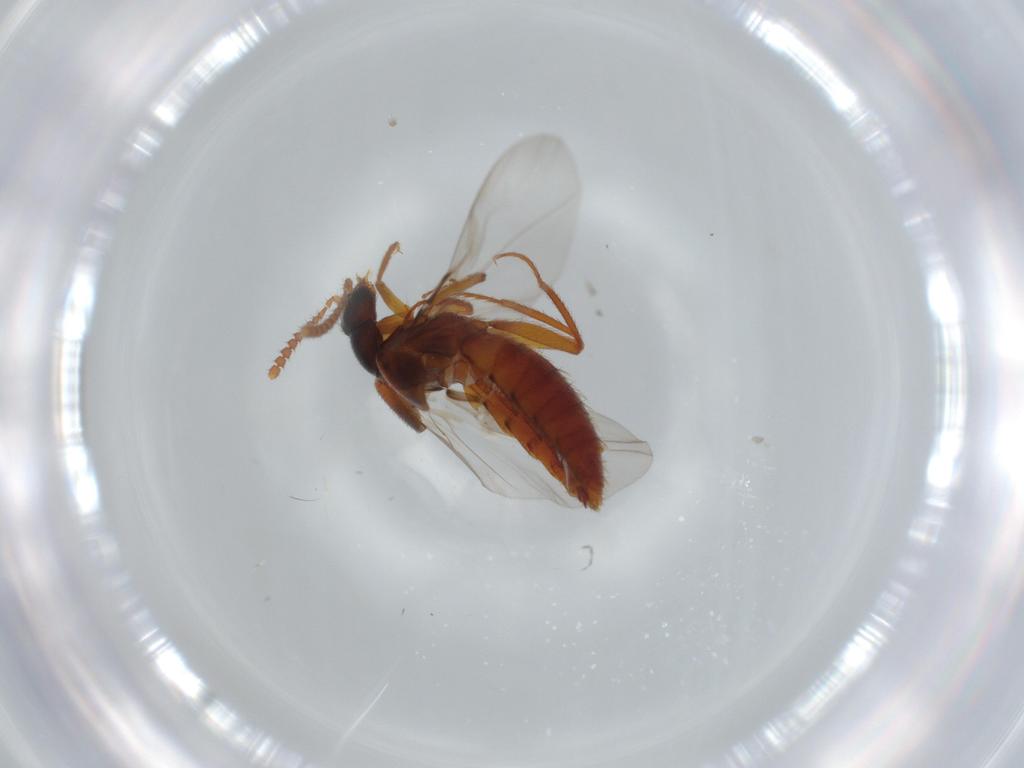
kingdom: Animalia
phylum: Arthropoda
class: Insecta
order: Coleoptera
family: Staphylinidae
